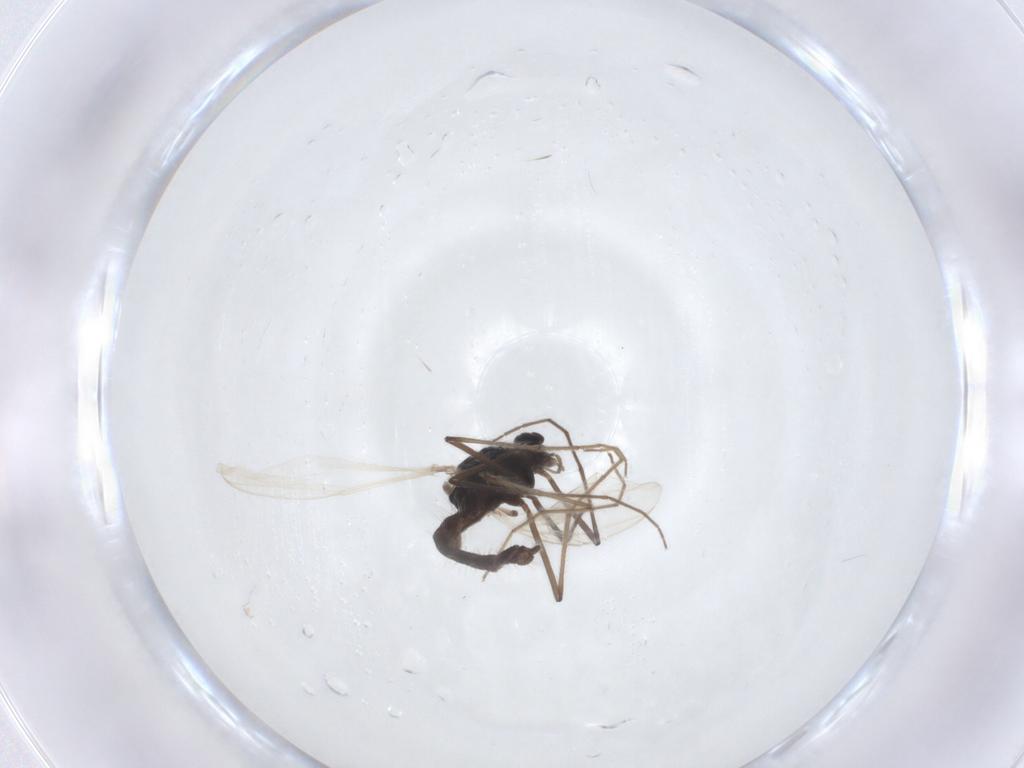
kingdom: Animalia
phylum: Arthropoda
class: Insecta
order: Diptera
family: Chironomidae
